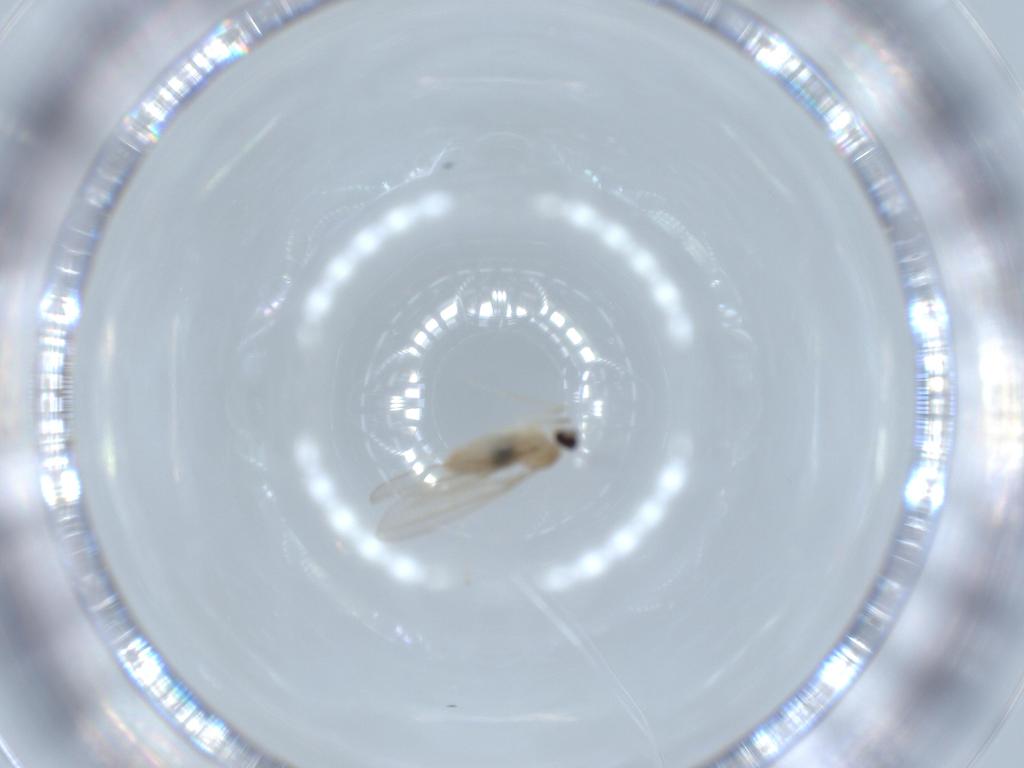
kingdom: Animalia
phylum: Arthropoda
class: Insecta
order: Diptera
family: Cecidomyiidae
